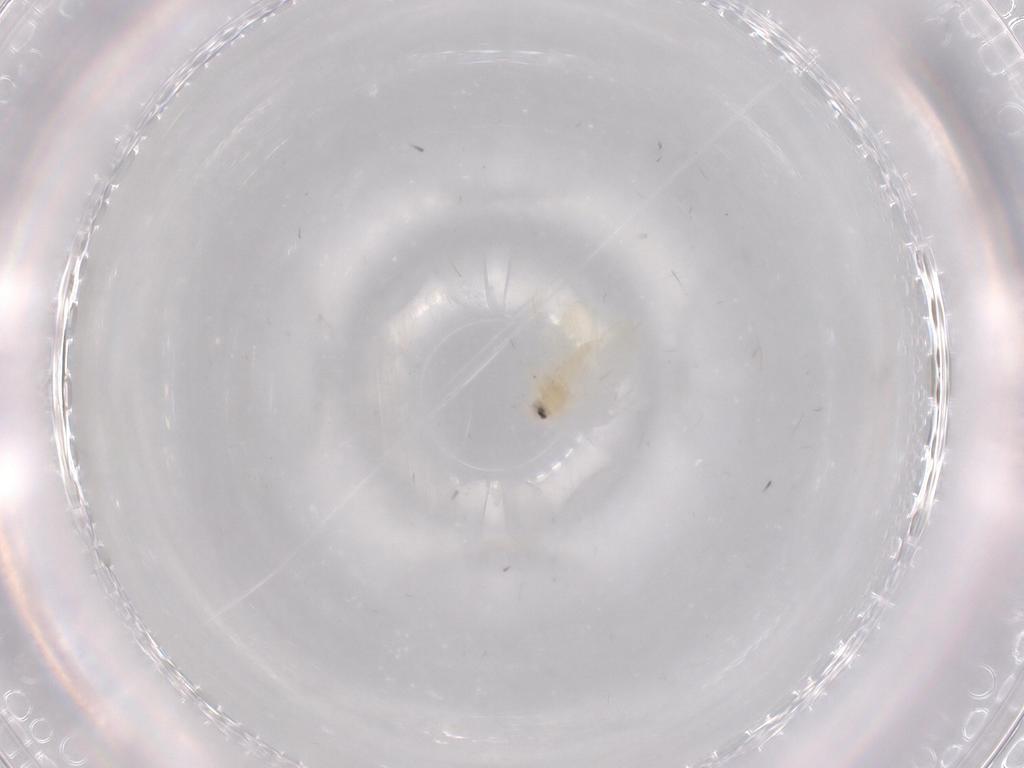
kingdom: Animalia
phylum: Arthropoda
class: Insecta
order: Hemiptera
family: Aleyrodidae
